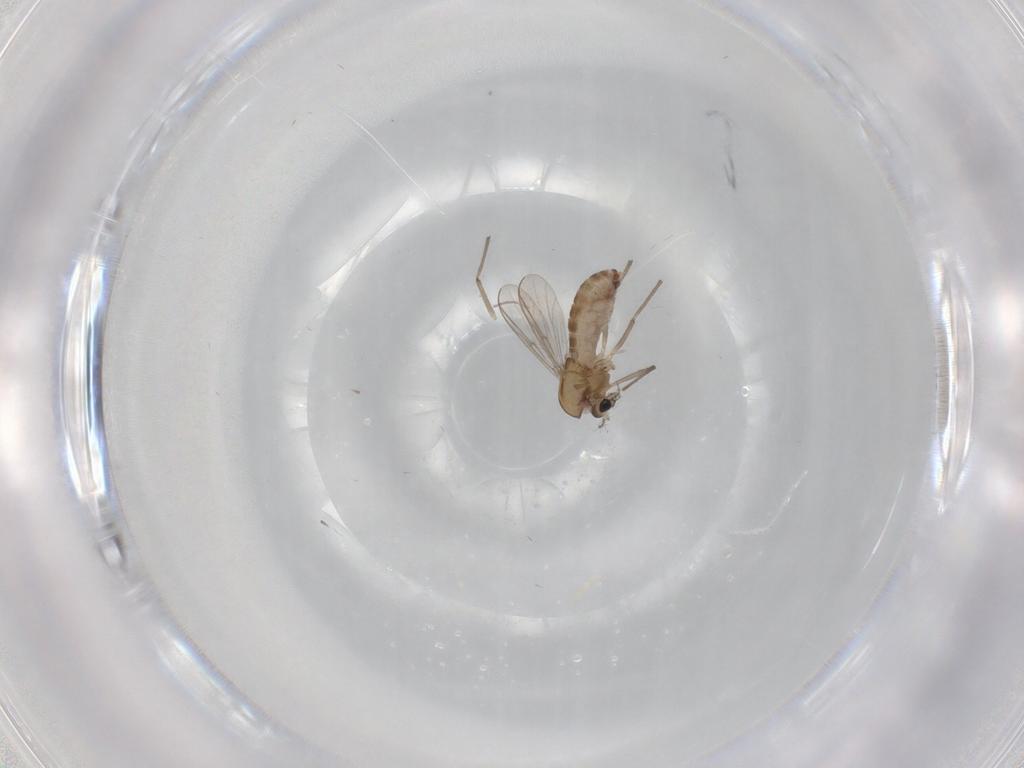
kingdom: Animalia
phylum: Arthropoda
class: Insecta
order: Diptera
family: Chironomidae
